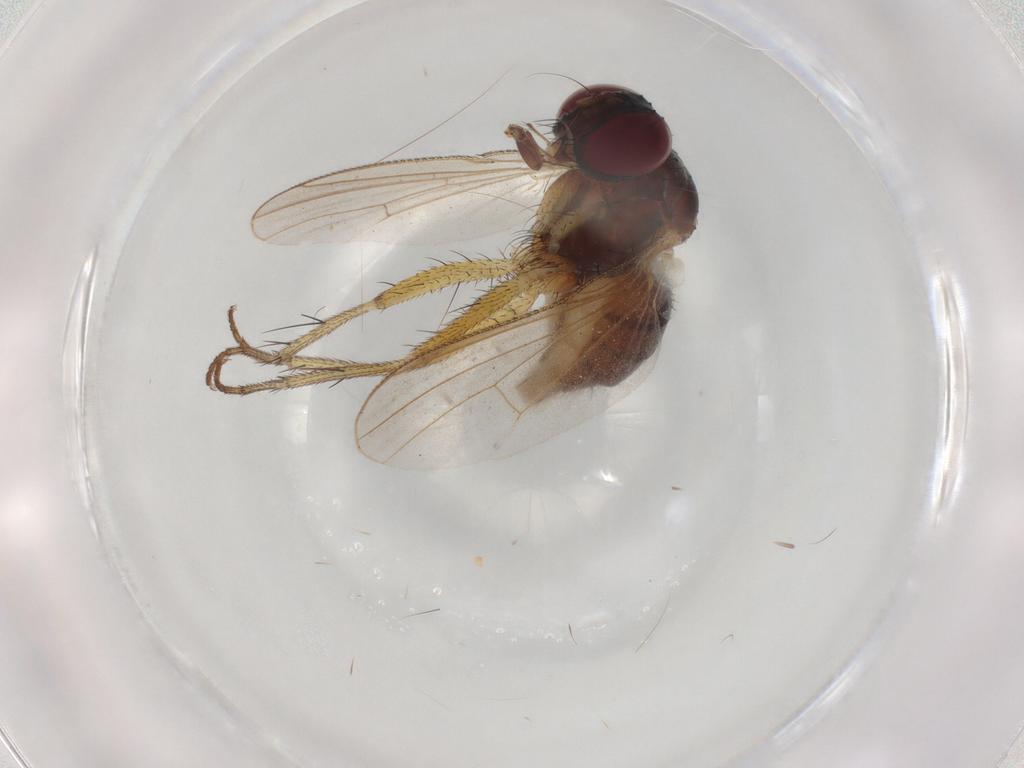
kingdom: Animalia
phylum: Arthropoda
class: Insecta
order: Diptera
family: Muscidae
